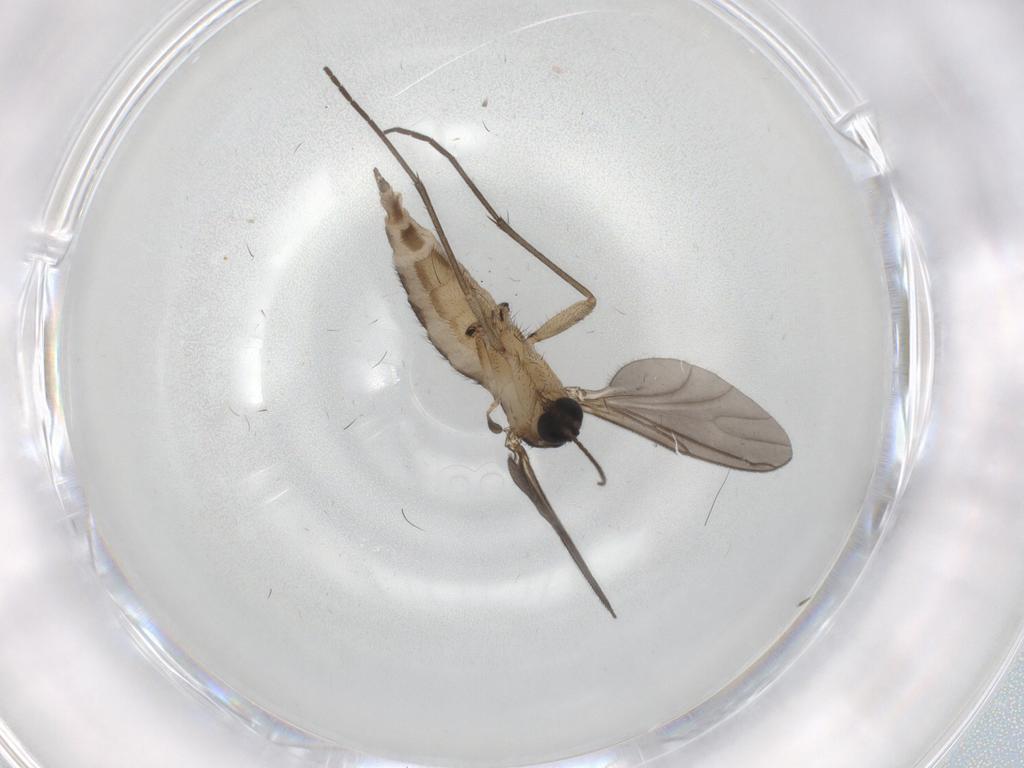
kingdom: Animalia
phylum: Arthropoda
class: Insecta
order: Diptera
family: Sciaridae
